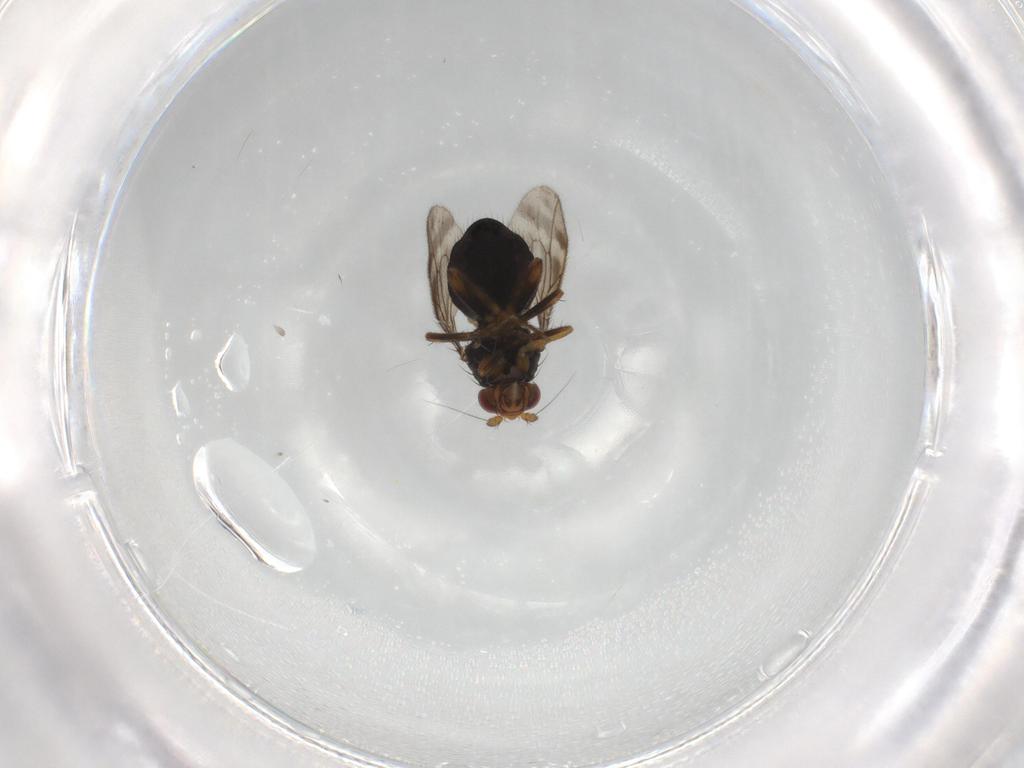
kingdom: Animalia
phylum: Arthropoda
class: Insecta
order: Diptera
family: Sphaeroceridae
